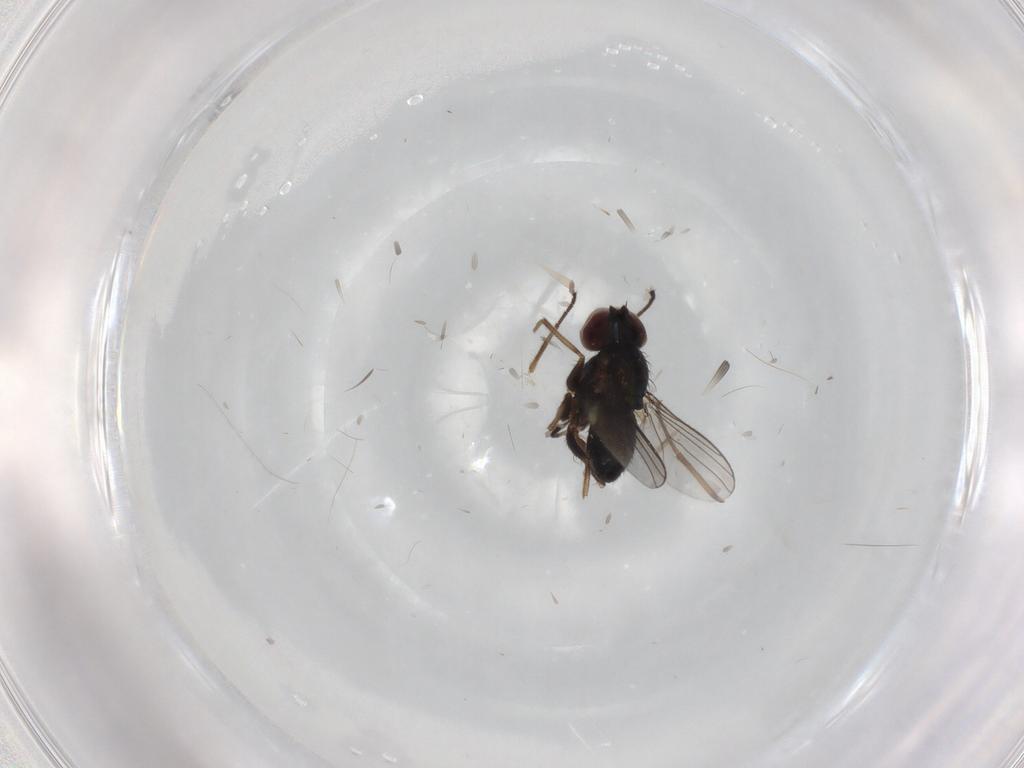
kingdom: Animalia
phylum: Arthropoda
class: Insecta
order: Diptera
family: Dolichopodidae
